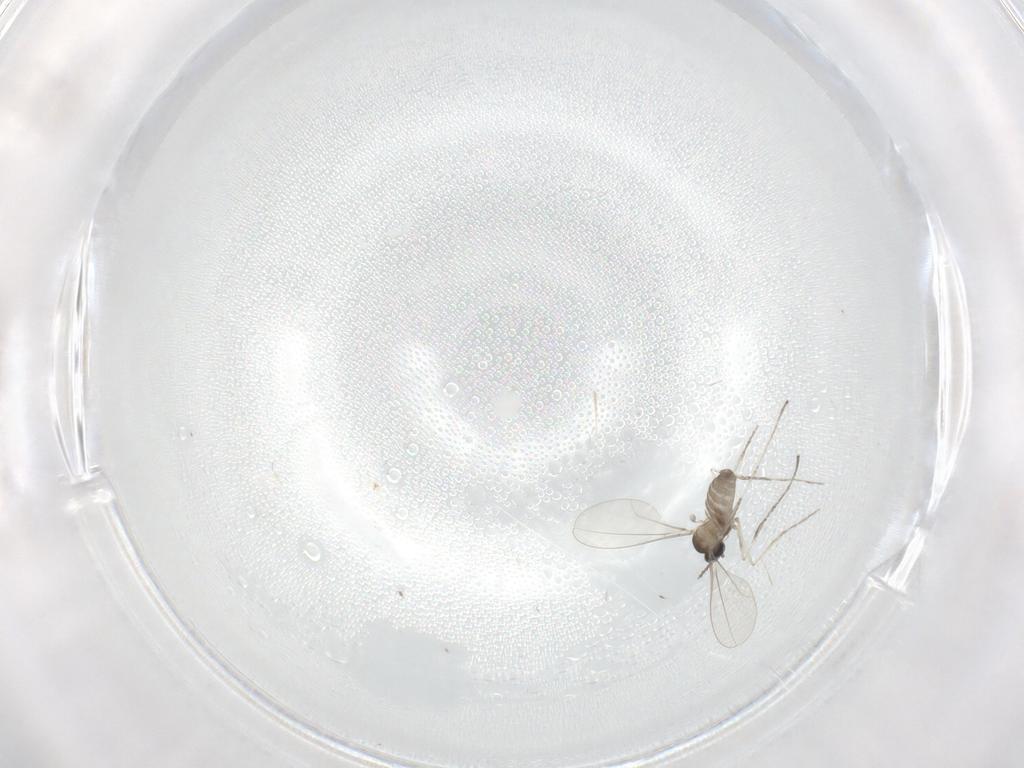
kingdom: Animalia
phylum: Arthropoda
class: Insecta
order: Diptera
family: Cecidomyiidae
